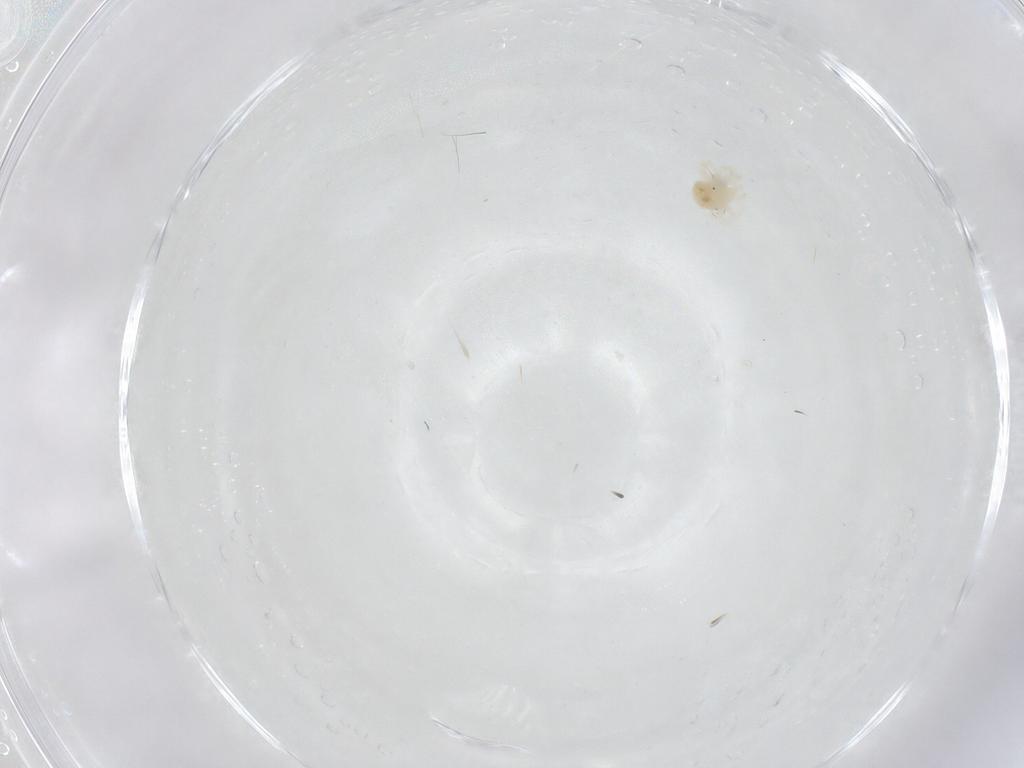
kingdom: Animalia
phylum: Arthropoda
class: Arachnida
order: Trombidiformes
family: Anystidae
